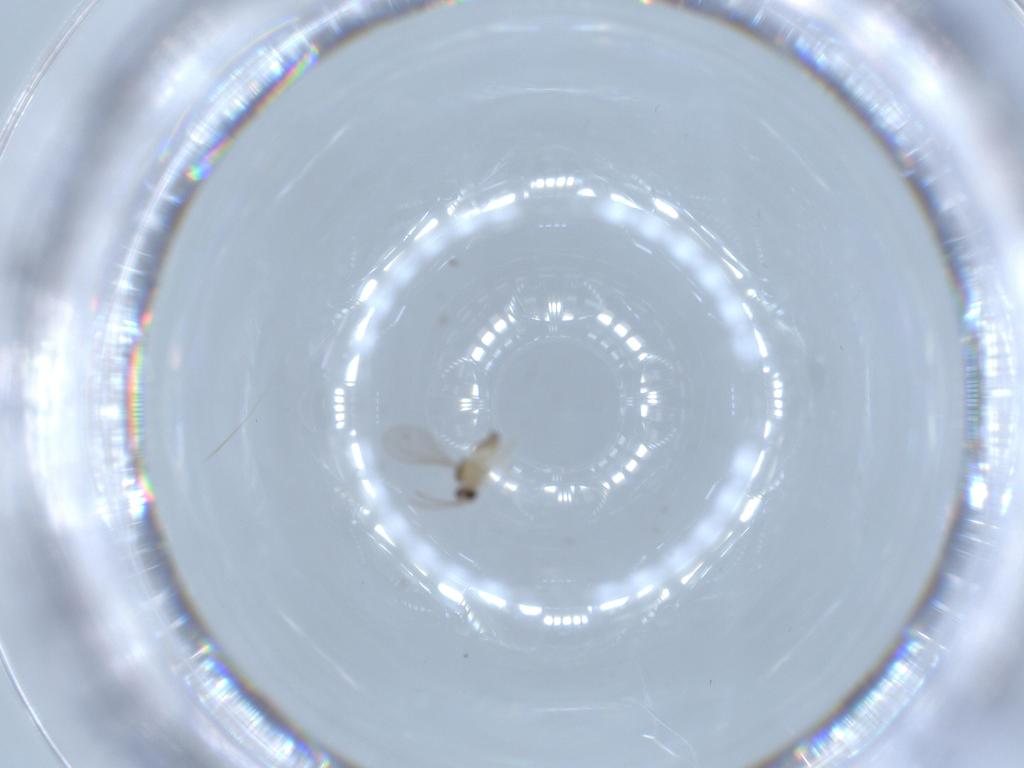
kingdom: Animalia
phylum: Arthropoda
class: Insecta
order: Diptera
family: Cecidomyiidae
